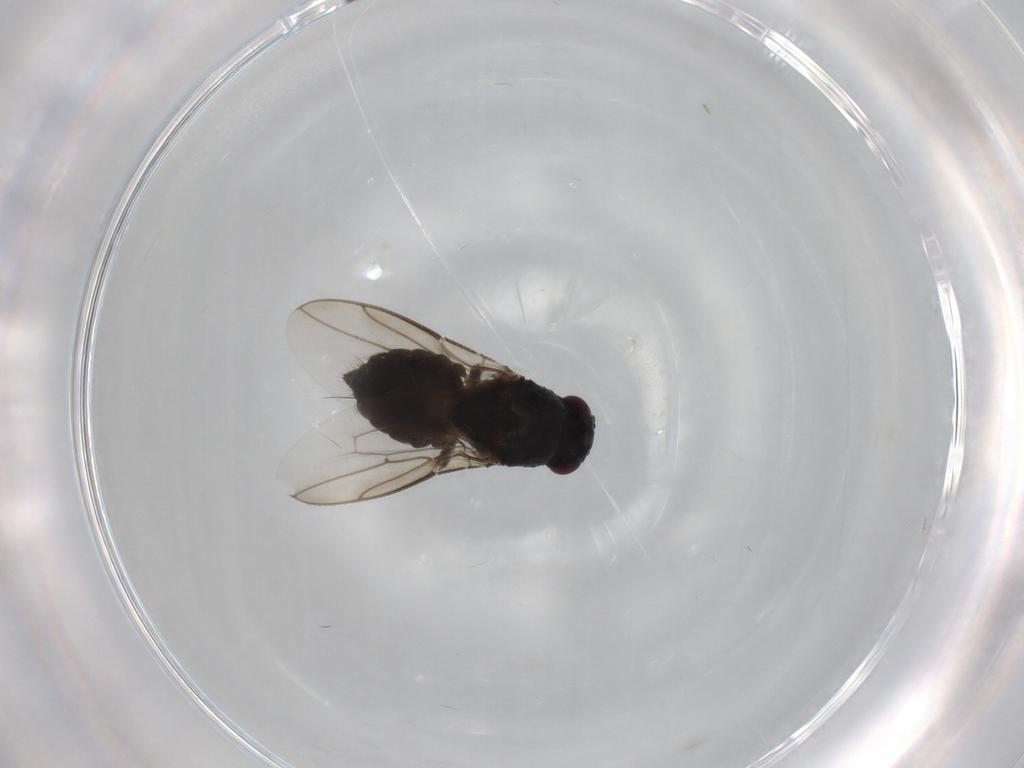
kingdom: Animalia
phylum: Arthropoda
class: Insecta
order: Diptera
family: Sphaeroceridae
